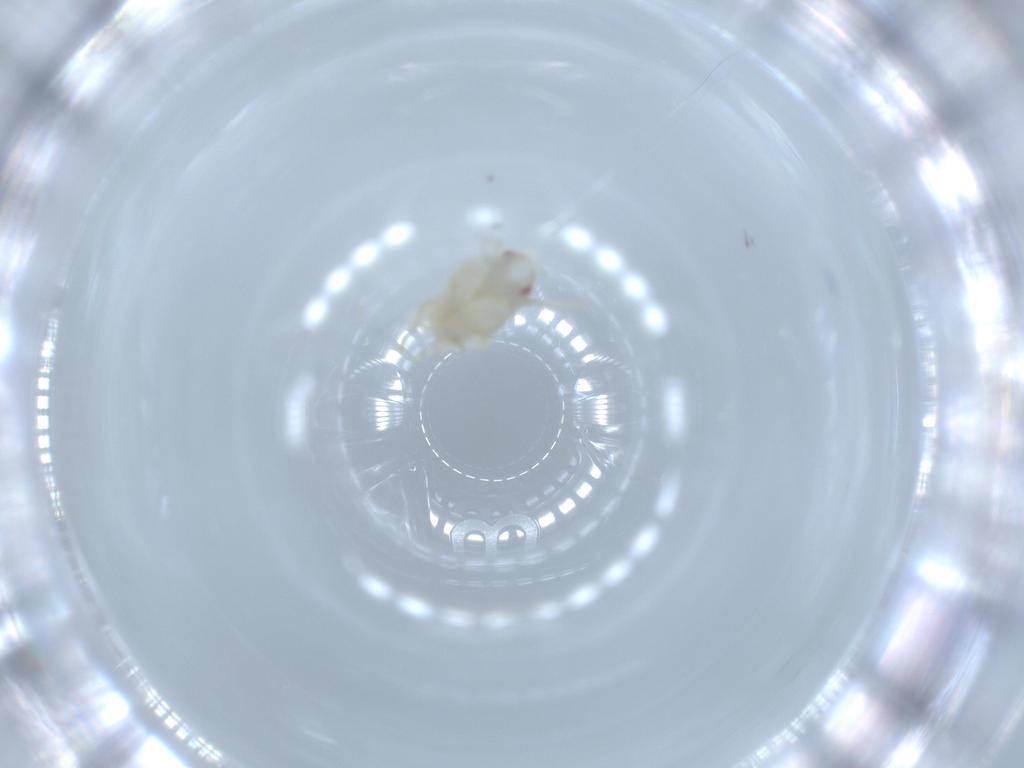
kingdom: Animalia
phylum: Arthropoda
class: Insecta
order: Hemiptera
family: Flatidae
